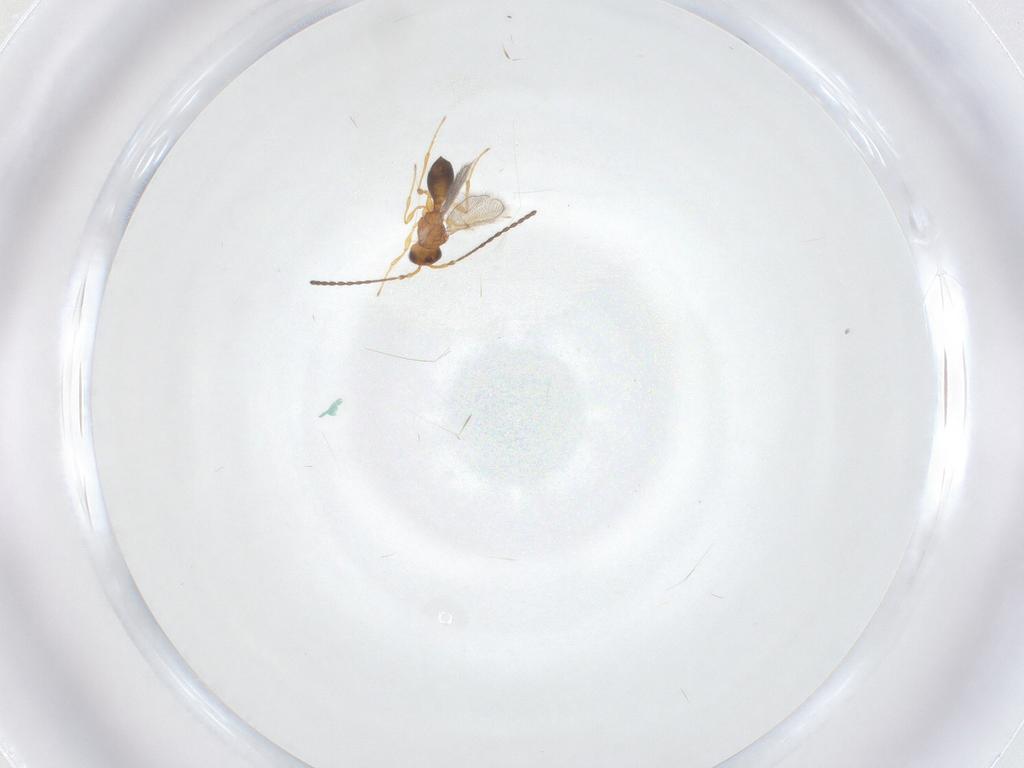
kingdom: Animalia
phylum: Arthropoda
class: Insecta
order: Hymenoptera
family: Diapriidae
